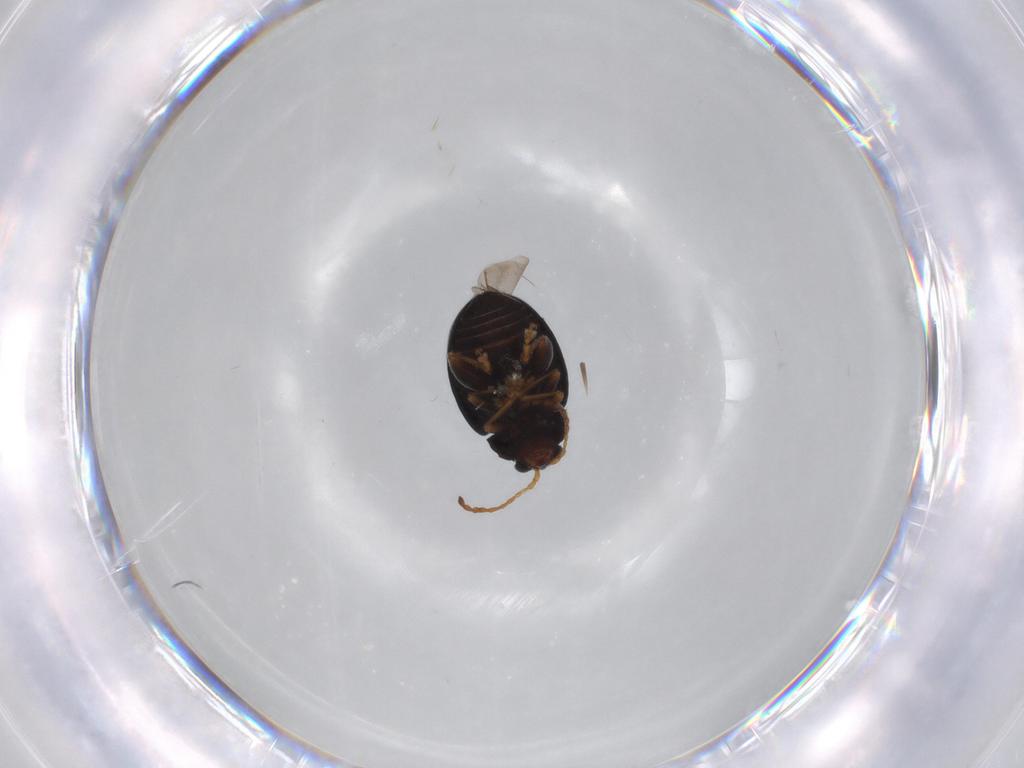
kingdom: Animalia
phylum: Arthropoda
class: Insecta
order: Coleoptera
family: Chrysomelidae
